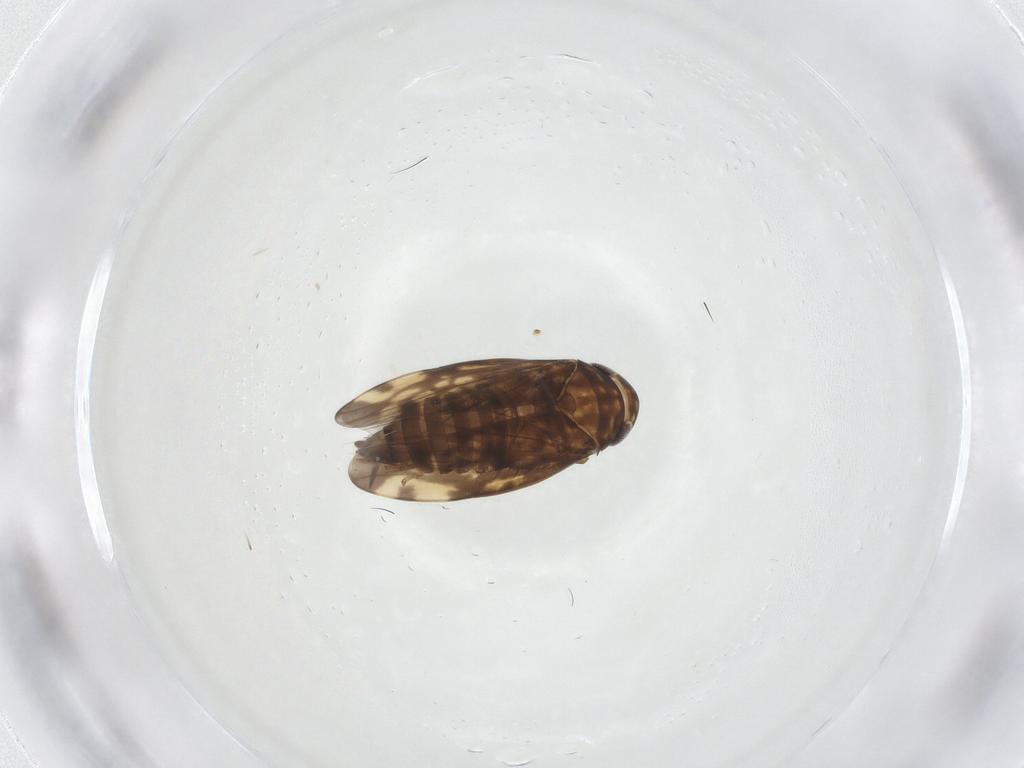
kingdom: Animalia
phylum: Arthropoda
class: Insecta
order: Hemiptera
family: Cicadellidae
